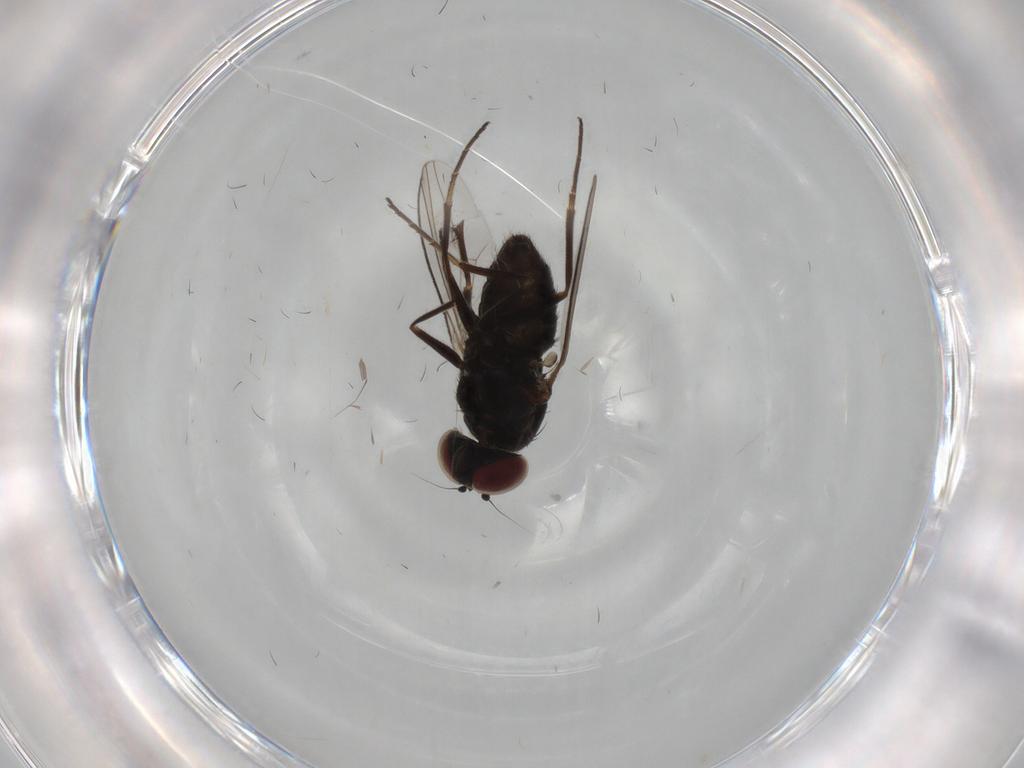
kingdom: Animalia
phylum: Arthropoda
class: Insecta
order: Diptera
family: Dolichopodidae
